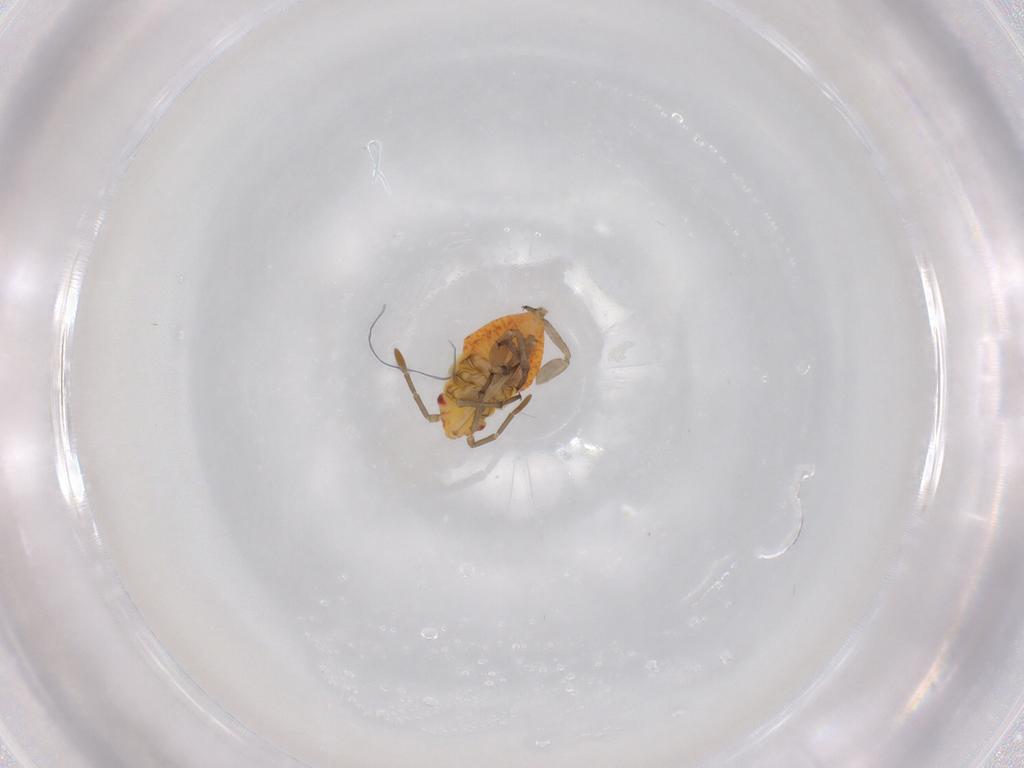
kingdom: Animalia
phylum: Arthropoda
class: Insecta
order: Hemiptera
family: Miridae
